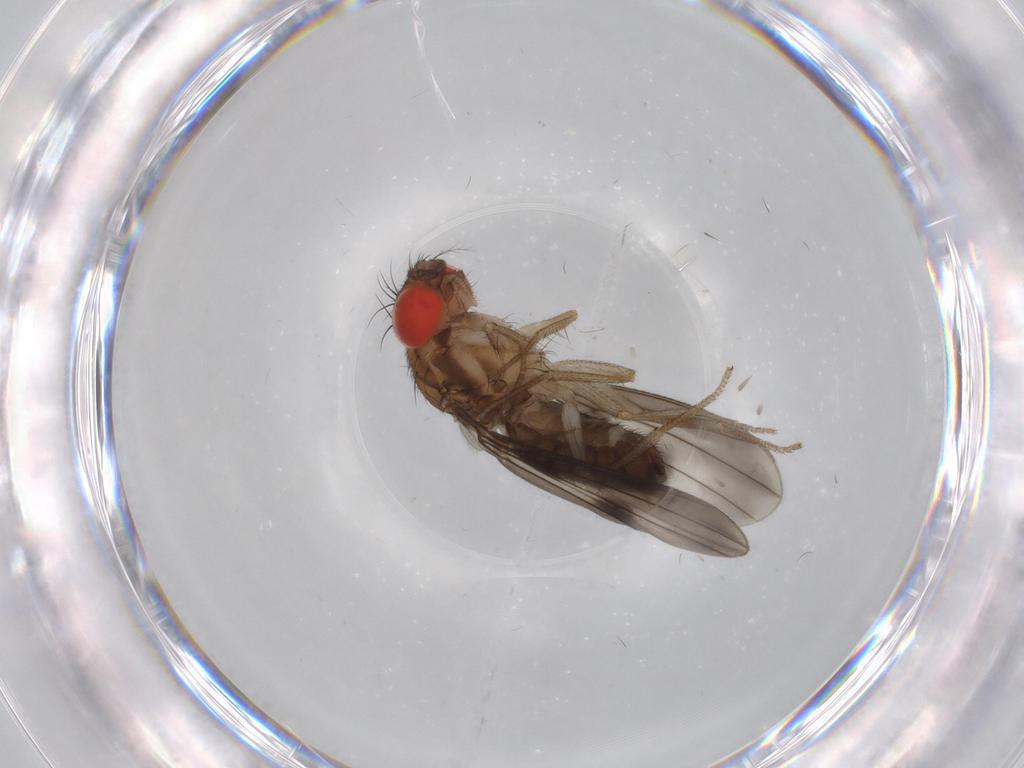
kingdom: Animalia
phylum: Arthropoda
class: Insecta
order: Diptera
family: Drosophilidae
